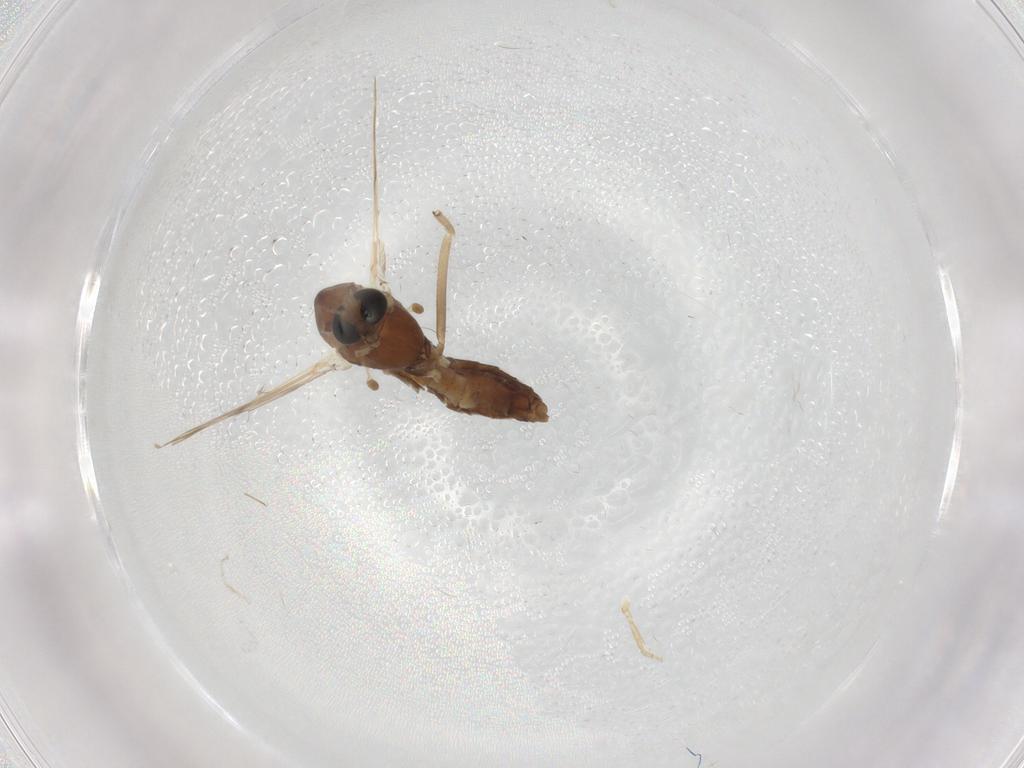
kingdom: Animalia
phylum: Arthropoda
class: Insecta
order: Diptera
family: Chironomidae
